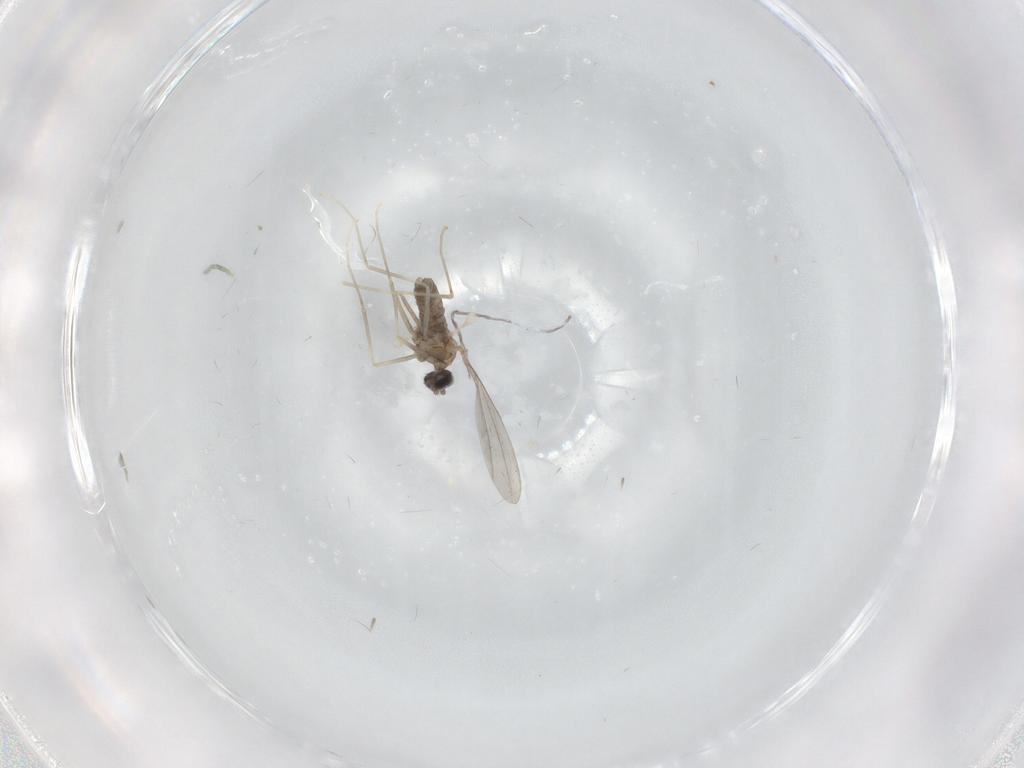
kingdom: Animalia
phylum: Arthropoda
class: Insecta
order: Diptera
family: Cecidomyiidae
